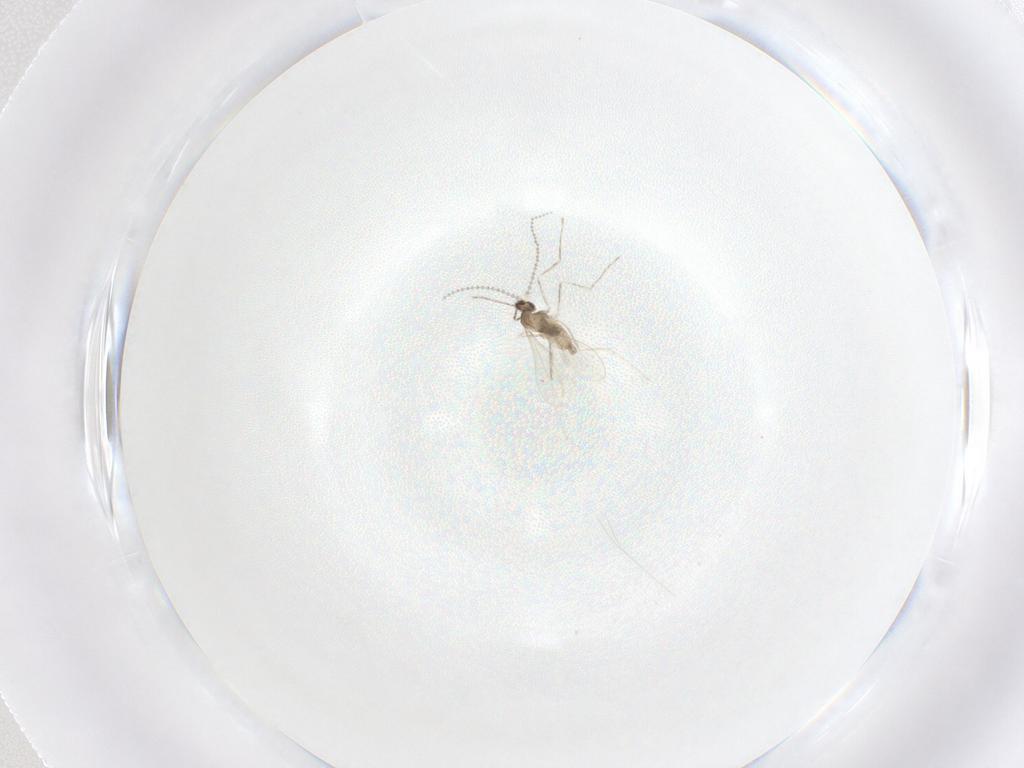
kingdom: Animalia
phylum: Arthropoda
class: Insecta
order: Diptera
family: Cecidomyiidae
